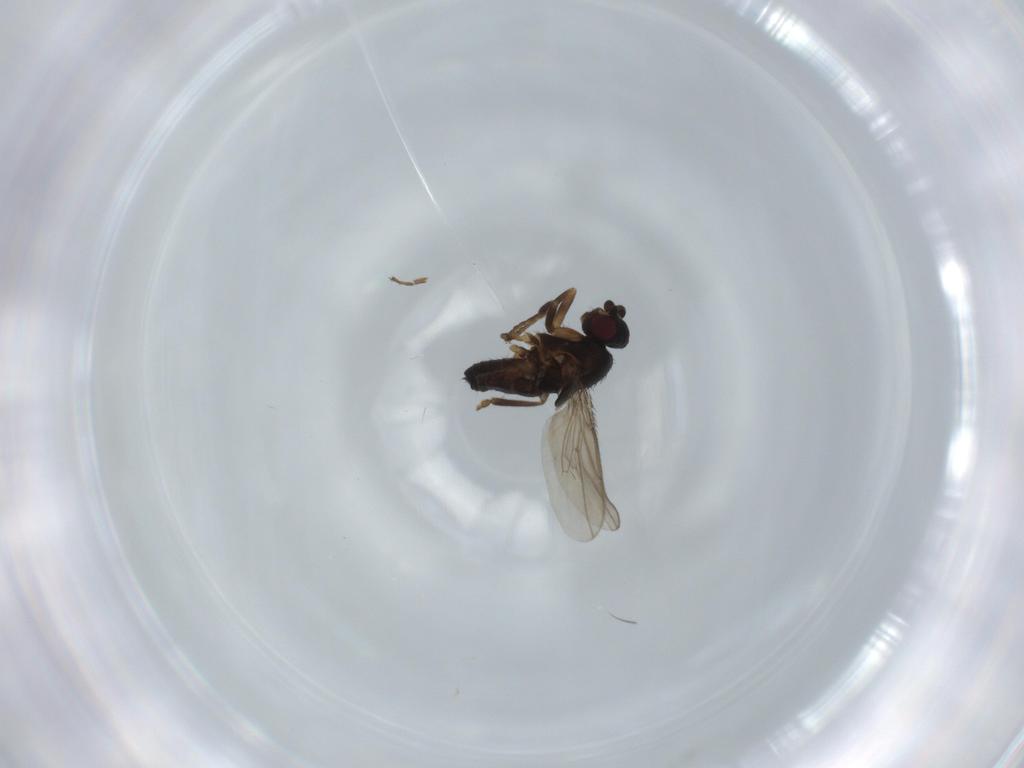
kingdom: Animalia
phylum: Arthropoda
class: Insecta
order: Diptera
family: Sphaeroceridae
